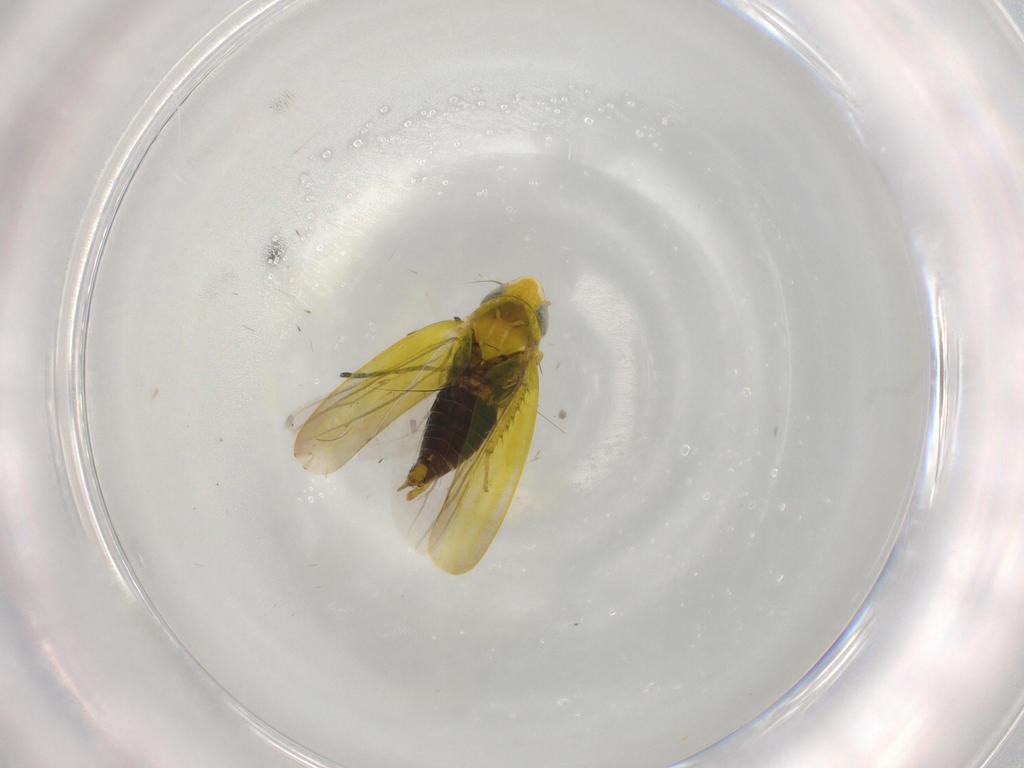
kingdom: Animalia
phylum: Arthropoda
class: Insecta
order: Hemiptera
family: Cicadellidae
